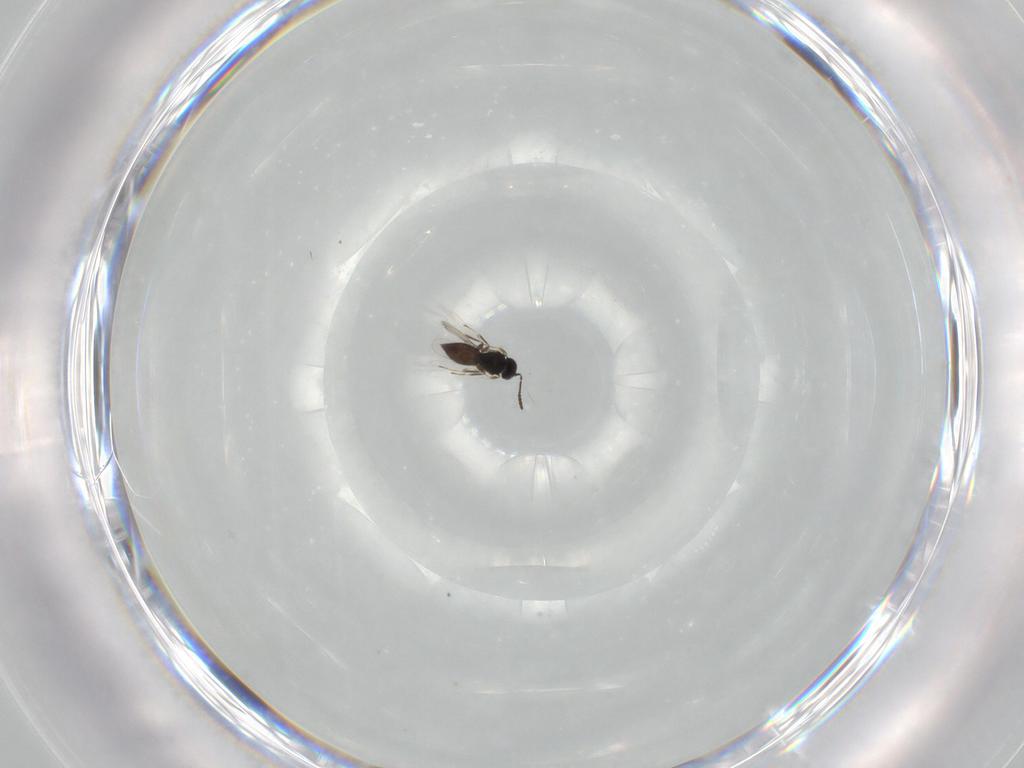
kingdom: Animalia
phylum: Arthropoda
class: Insecta
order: Hymenoptera
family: Scelionidae
